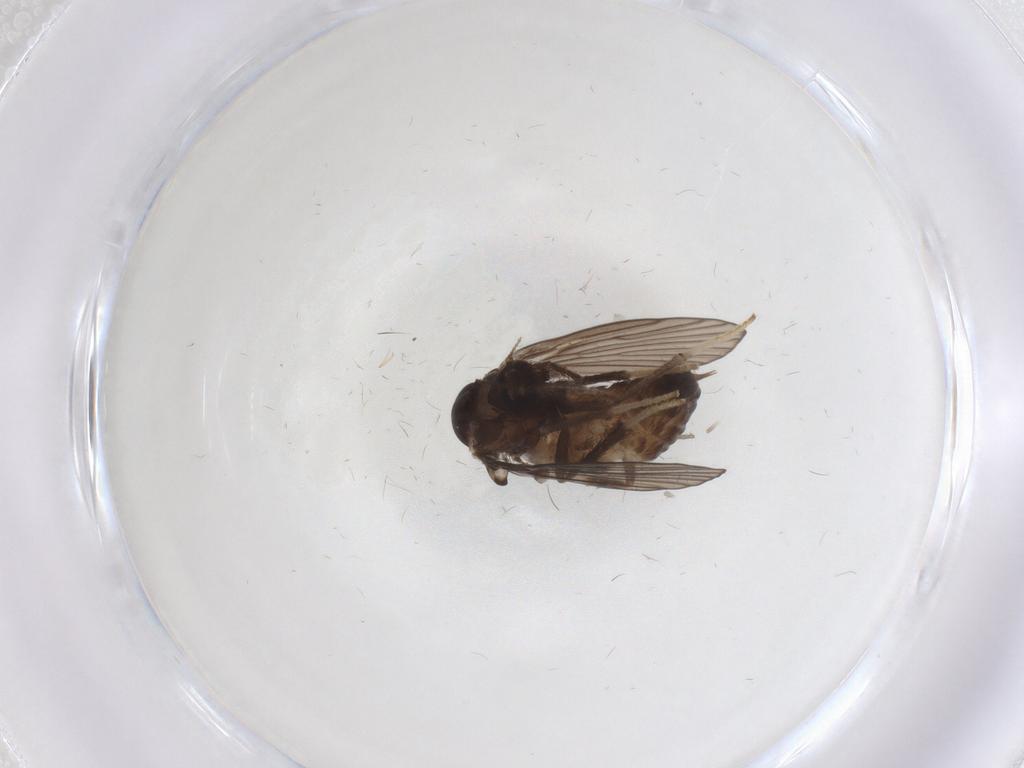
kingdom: Animalia
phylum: Arthropoda
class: Insecta
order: Diptera
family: Psychodidae
